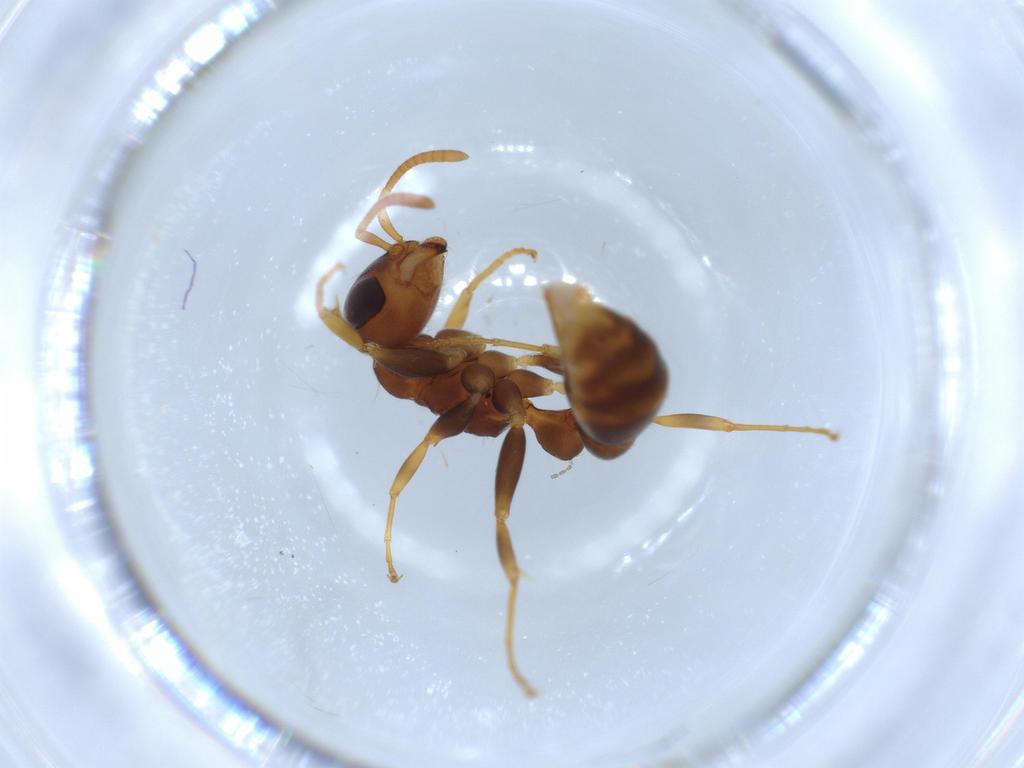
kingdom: Animalia
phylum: Arthropoda
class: Insecta
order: Hymenoptera
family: Formicidae
